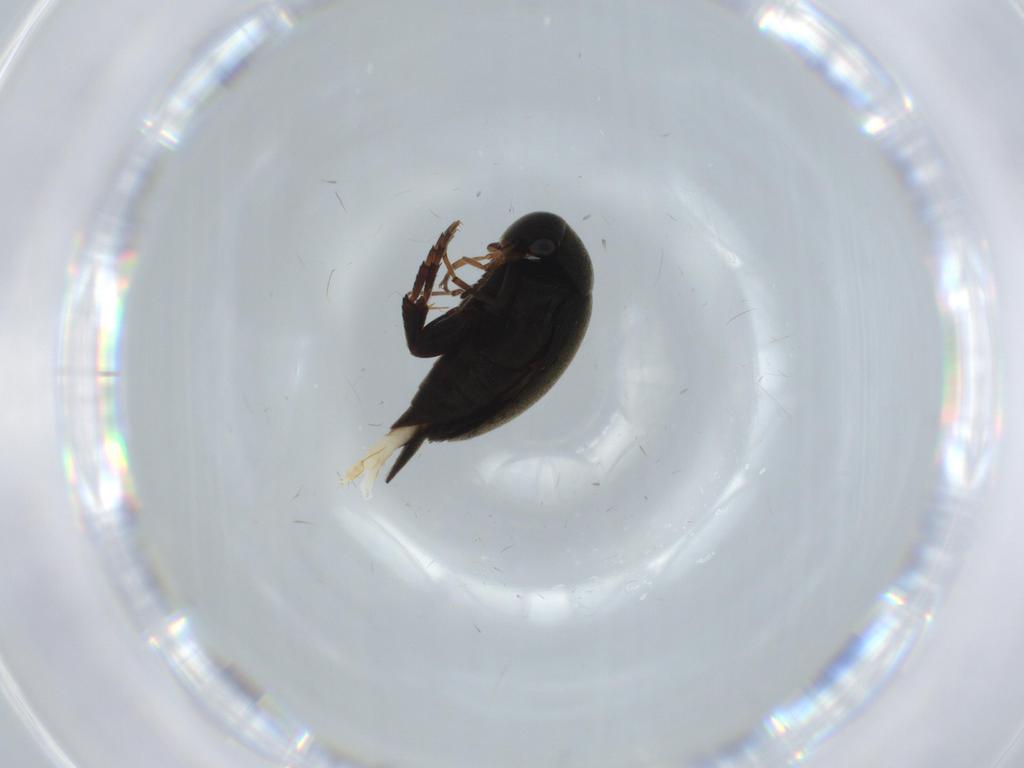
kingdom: Animalia
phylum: Arthropoda
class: Insecta
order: Coleoptera
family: Mordellidae
